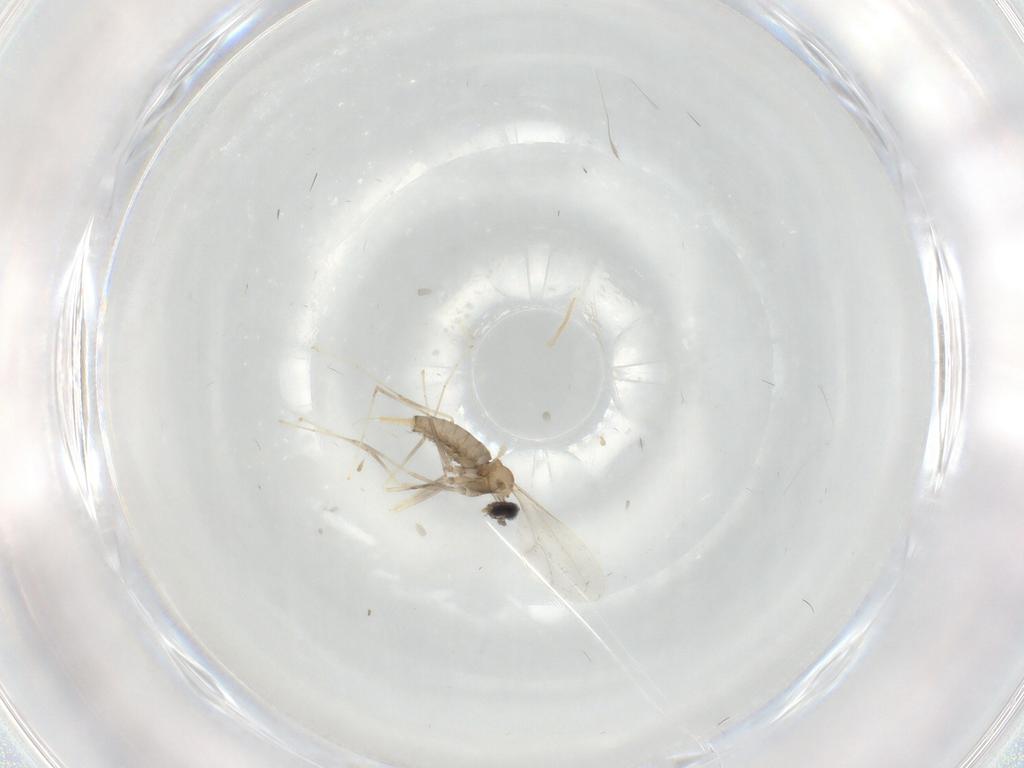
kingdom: Animalia
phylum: Arthropoda
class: Insecta
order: Diptera
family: Cecidomyiidae
